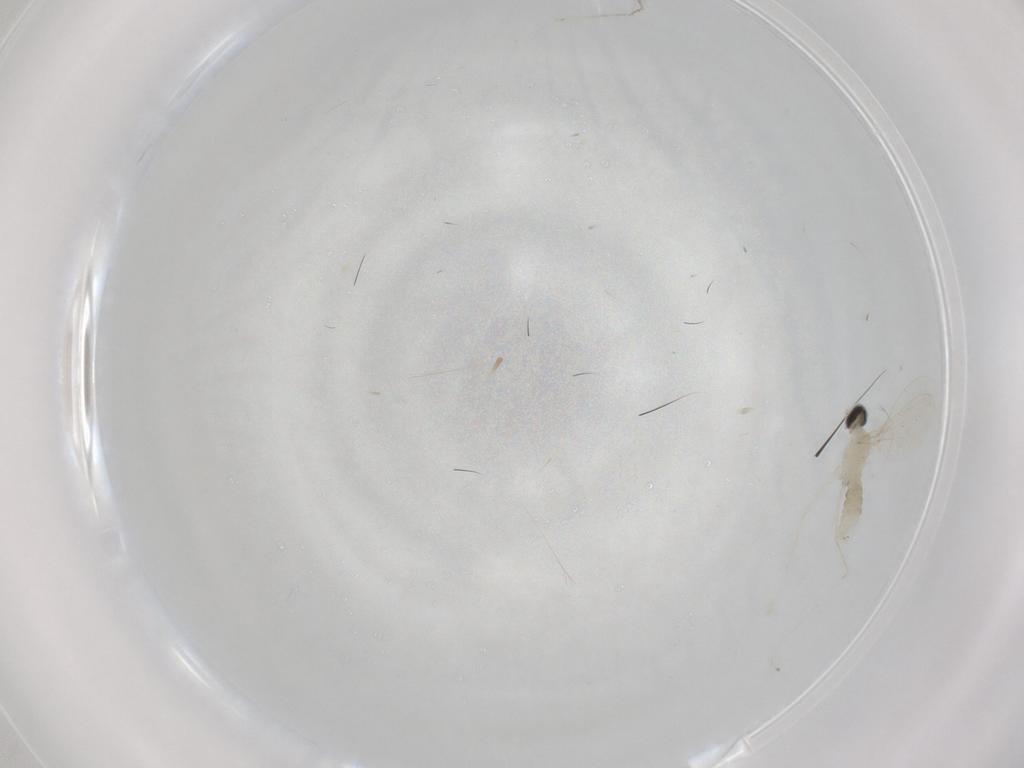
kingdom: Animalia
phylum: Arthropoda
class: Insecta
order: Diptera
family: Cecidomyiidae
